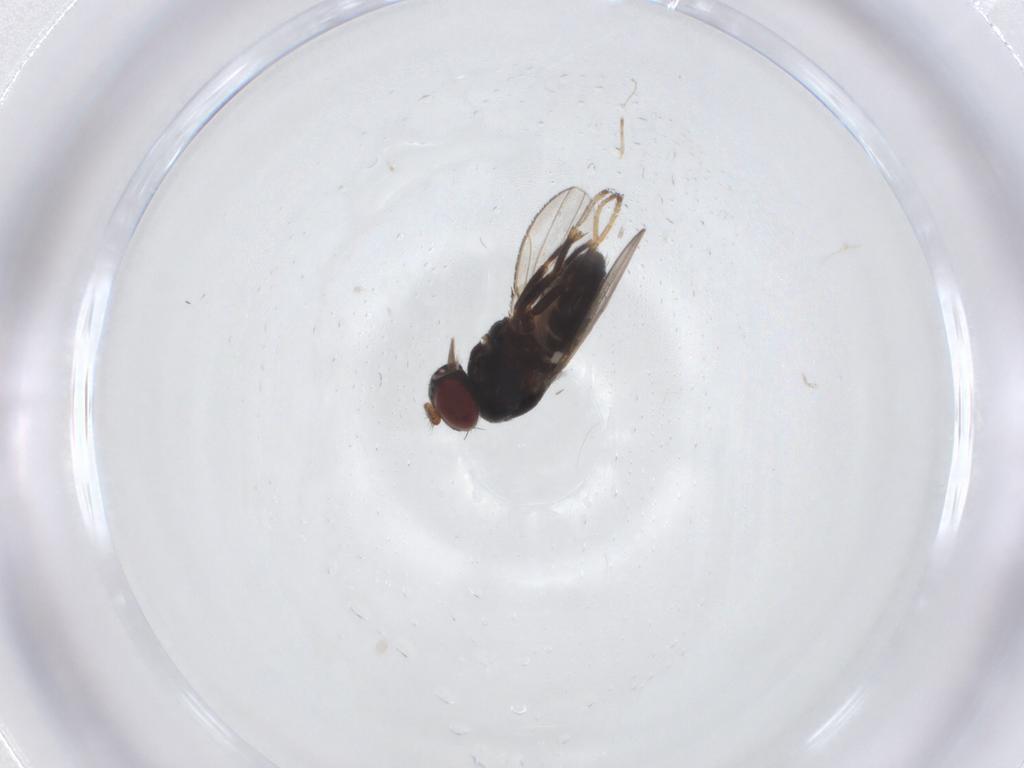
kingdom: Animalia
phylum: Arthropoda
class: Insecta
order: Diptera
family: Ephydridae
